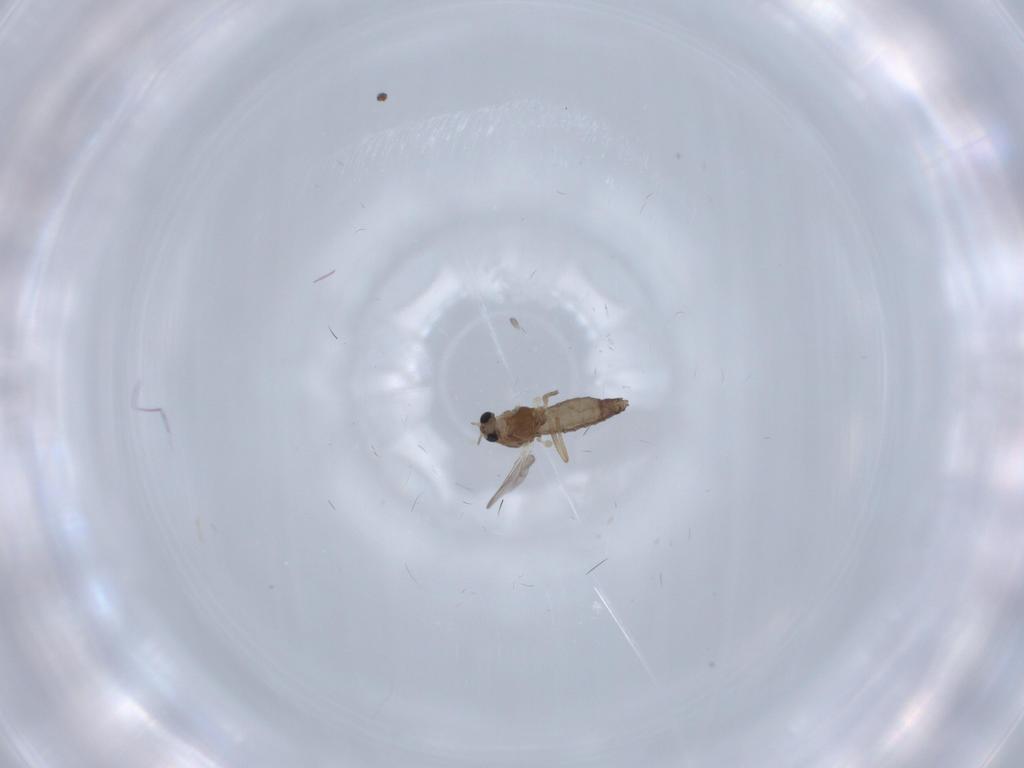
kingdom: Animalia
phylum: Arthropoda
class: Insecta
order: Diptera
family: Chironomidae
